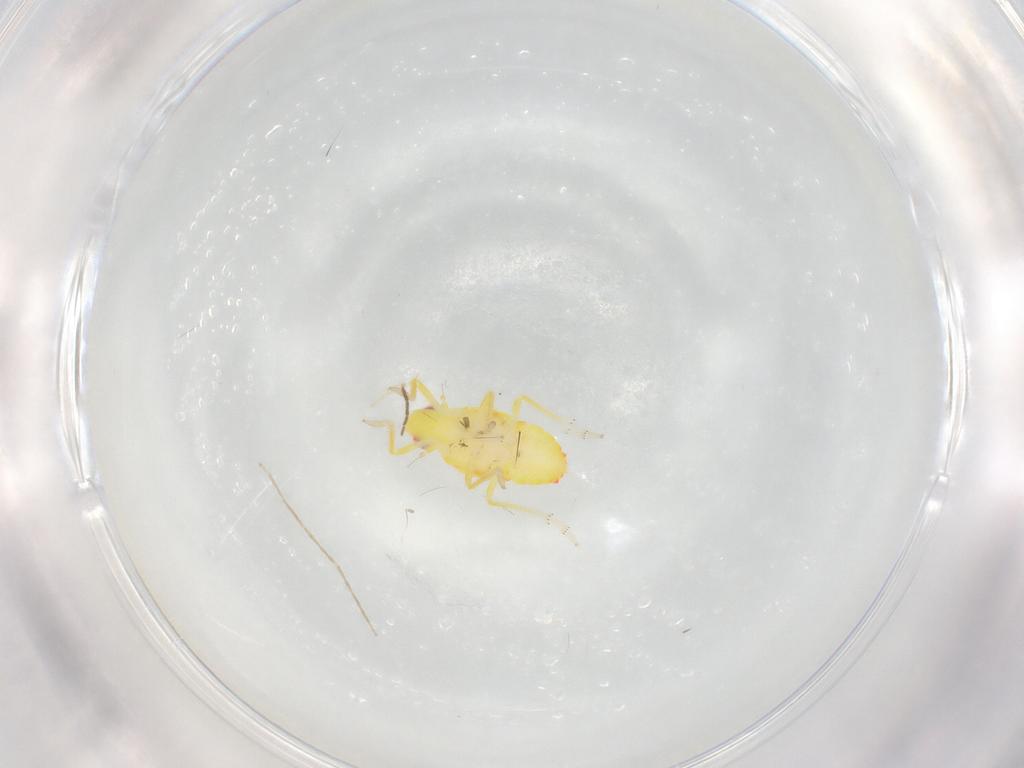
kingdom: Animalia
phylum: Arthropoda
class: Insecta
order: Hemiptera
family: Tropiduchidae
